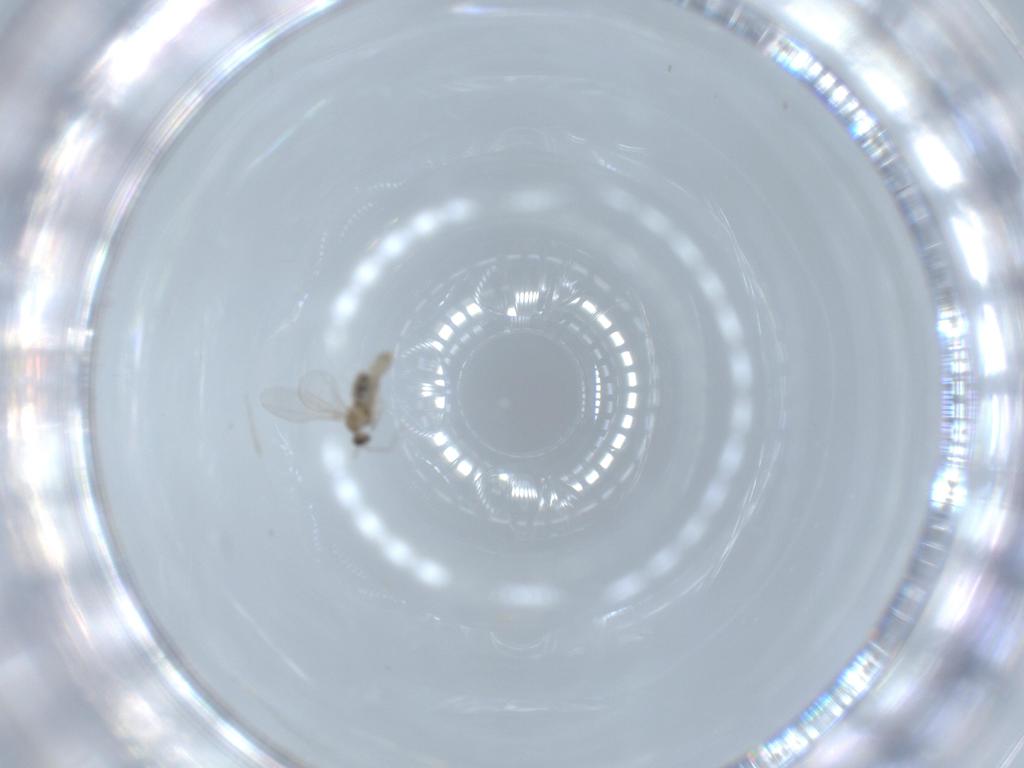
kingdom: Animalia
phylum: Arthropoda
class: Insecta
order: Diptera
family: Cecidomyiidae
